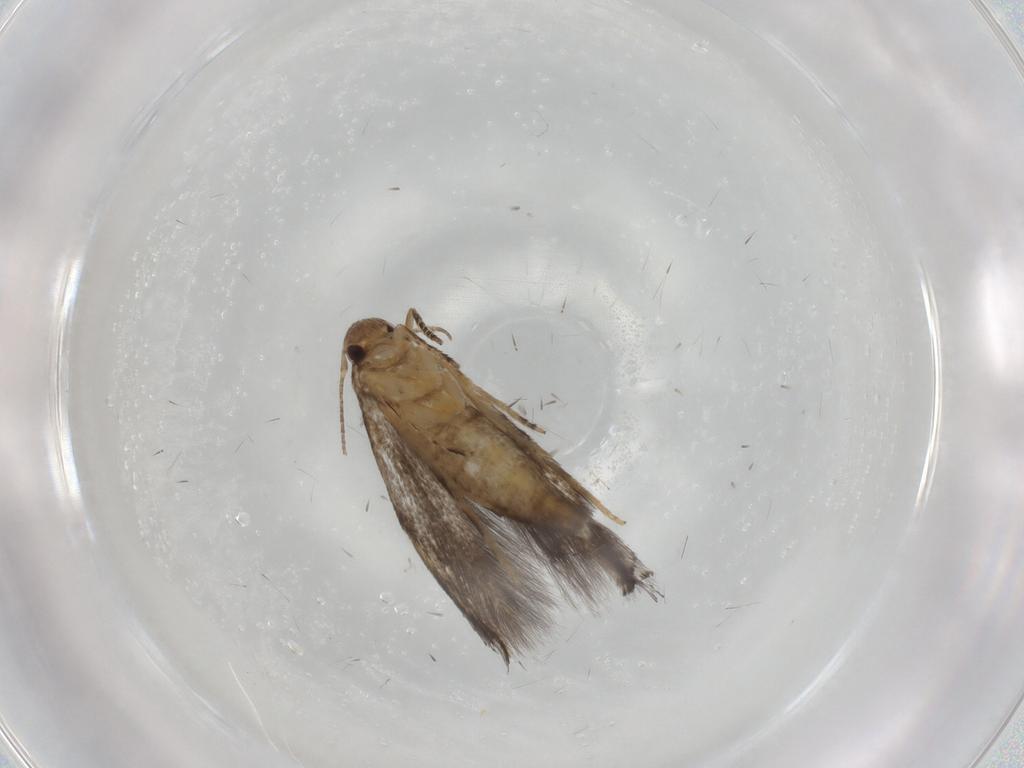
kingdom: Animalia
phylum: Arthropoda
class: Insecta
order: Lepidoptera
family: Elachistidae
